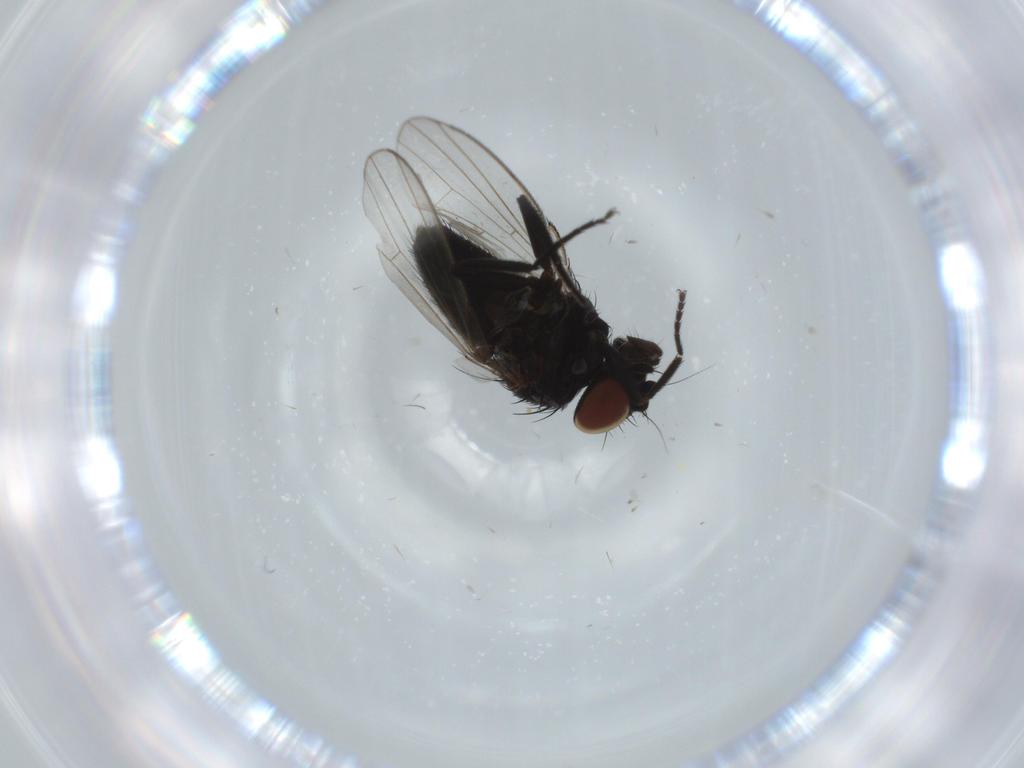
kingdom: Animalia
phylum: Arthropoda
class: Insecta
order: Diptera
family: Ceratopogonidae
